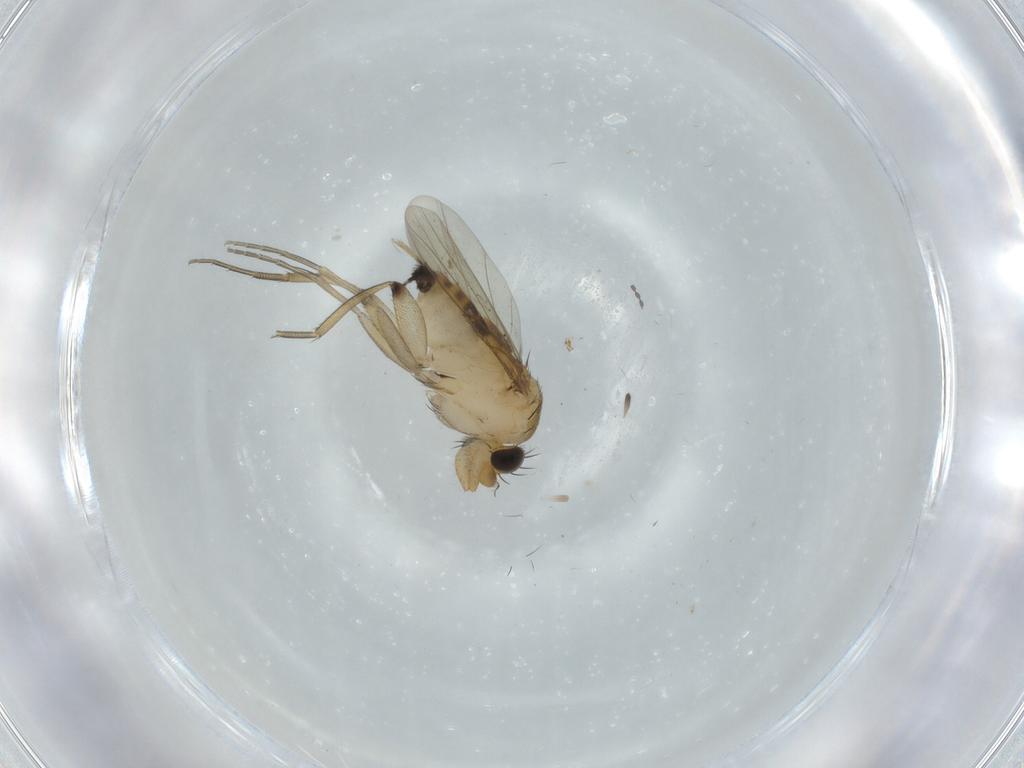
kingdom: Animalia
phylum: Arthropoda
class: Insecta
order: Diptera
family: Phoridae
